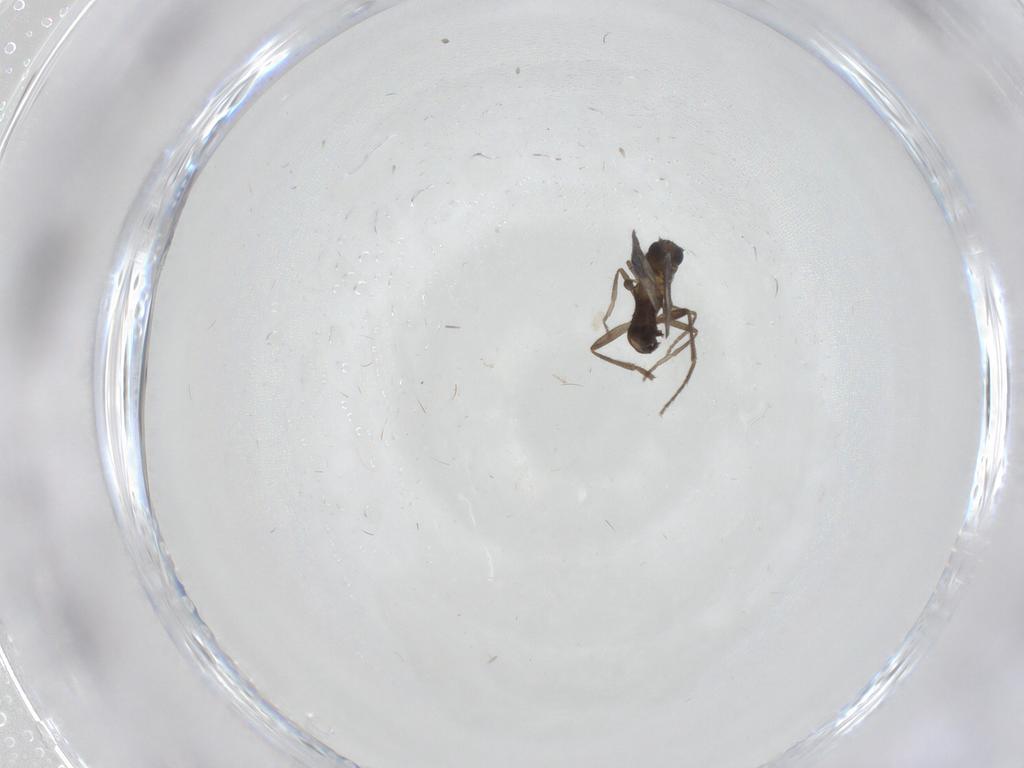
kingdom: Animalia
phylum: Arthropoda
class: Insecta
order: Diptera
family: Phoridae
